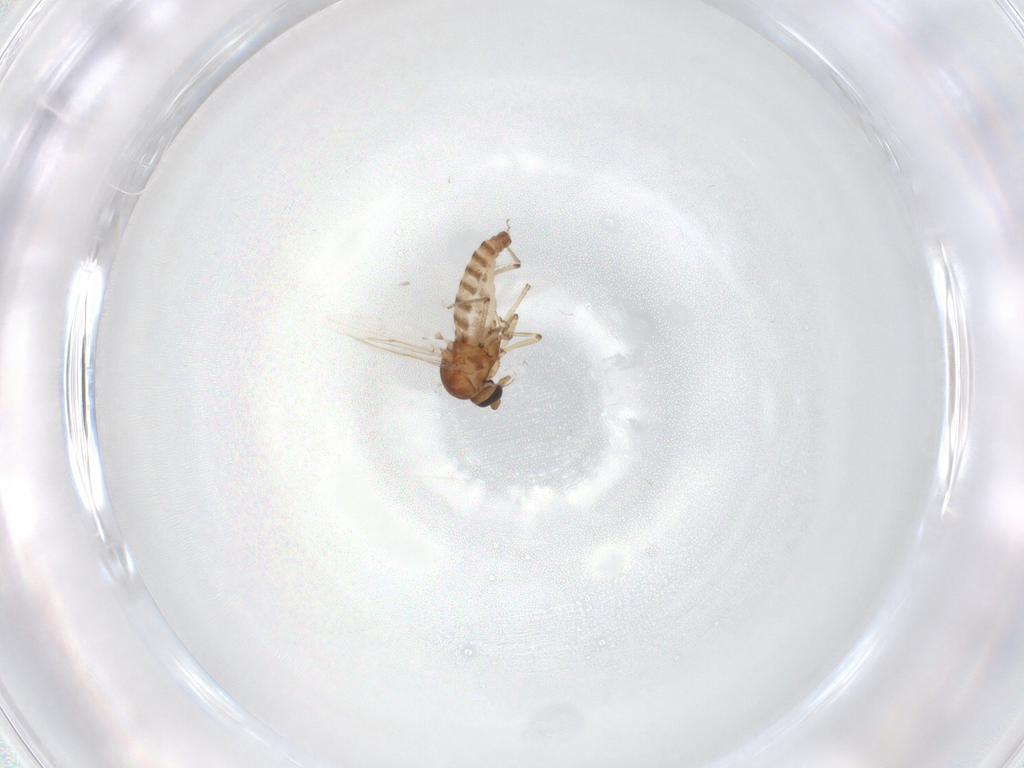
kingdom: Animalia
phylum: Arthropoda
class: Insecta
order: Diptera
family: Ceratopogonidae
